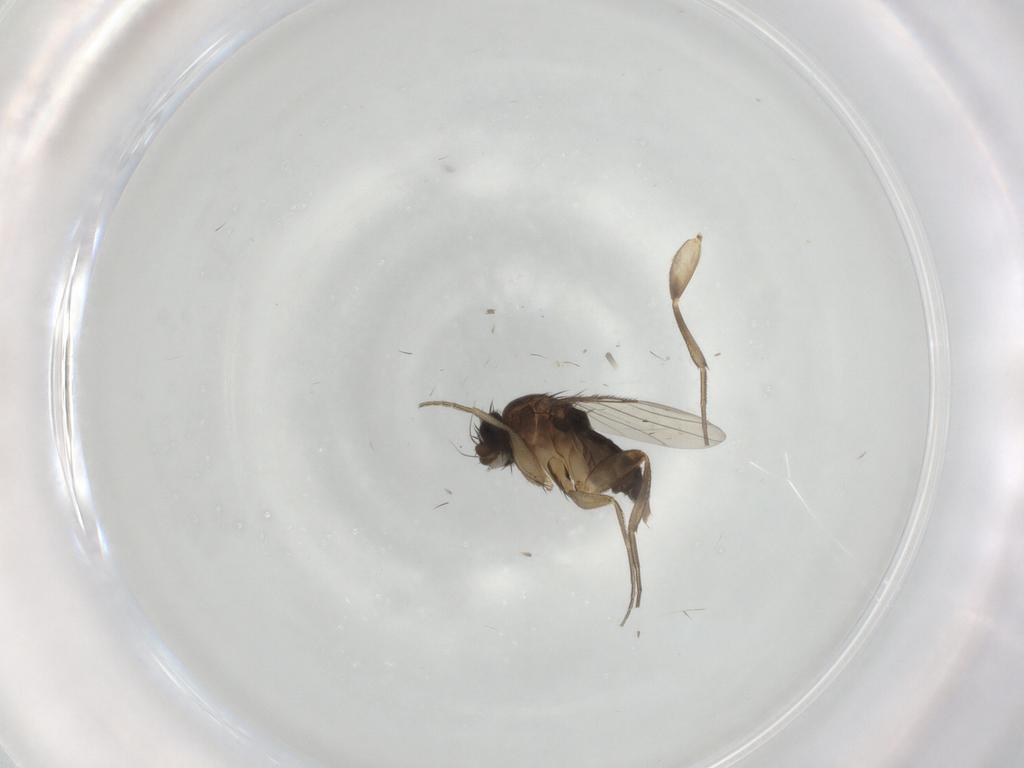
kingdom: Animalia
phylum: Arthropoda
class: Insecta
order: Diptera
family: Phoridae
